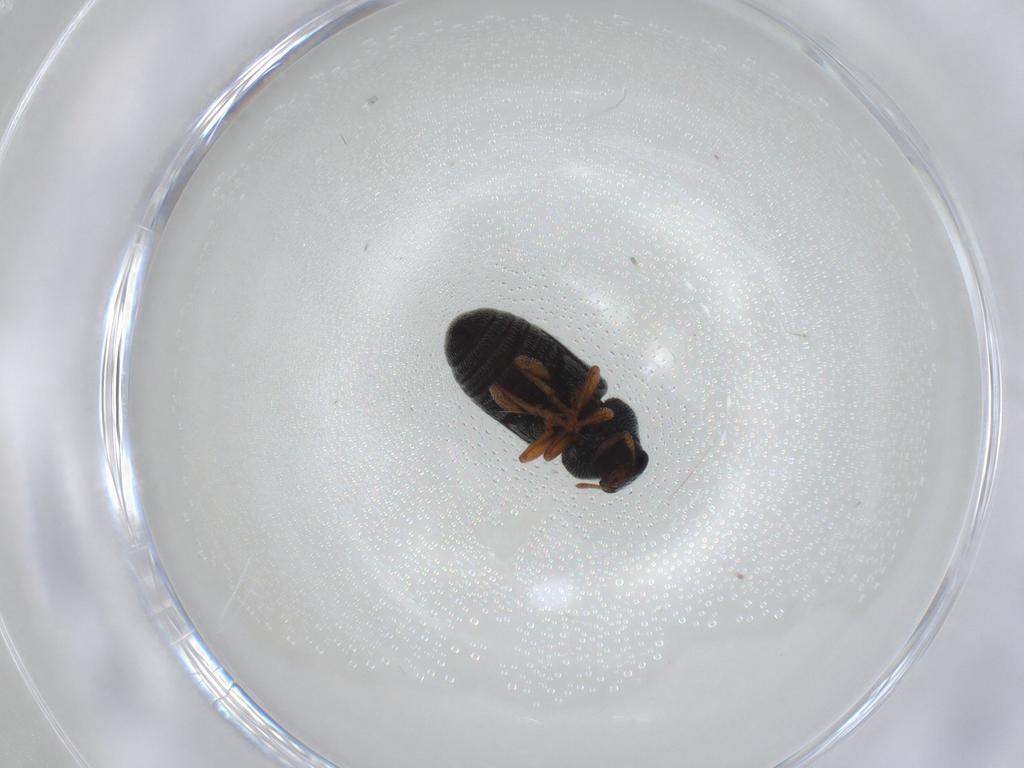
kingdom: Animalia
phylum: Arthropoda
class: Insecta
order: Coleoptera
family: Anthribidae
